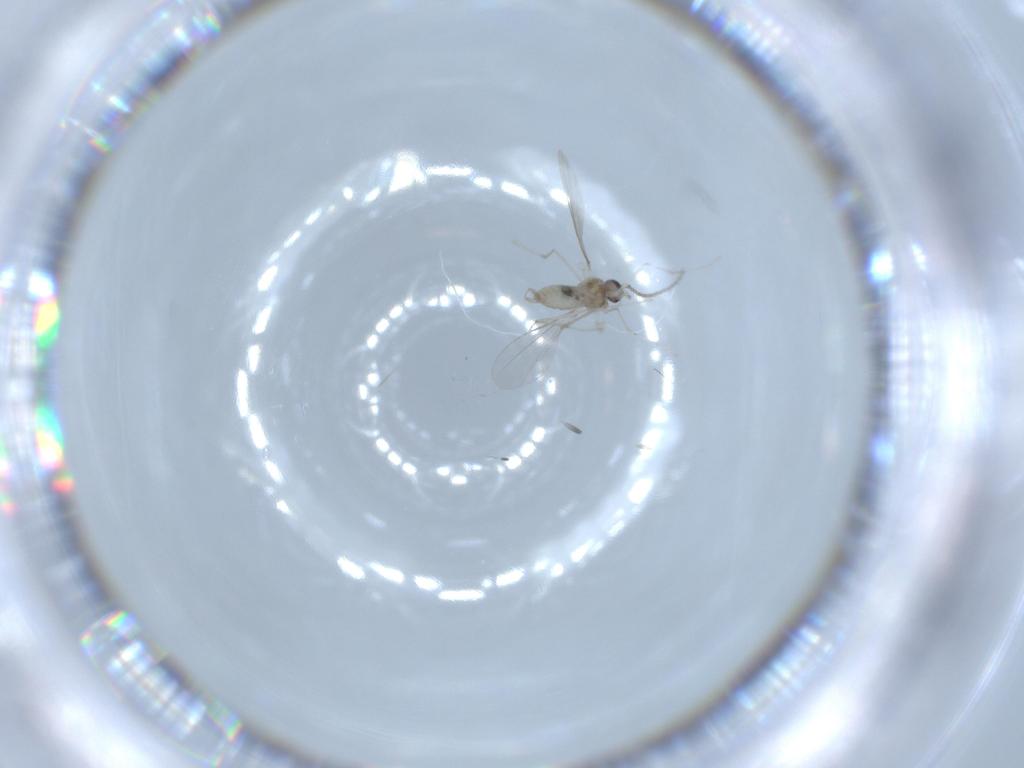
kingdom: Animalia
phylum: Arthropoda
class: Insecta
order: Diptera
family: Cecidomyiidae
